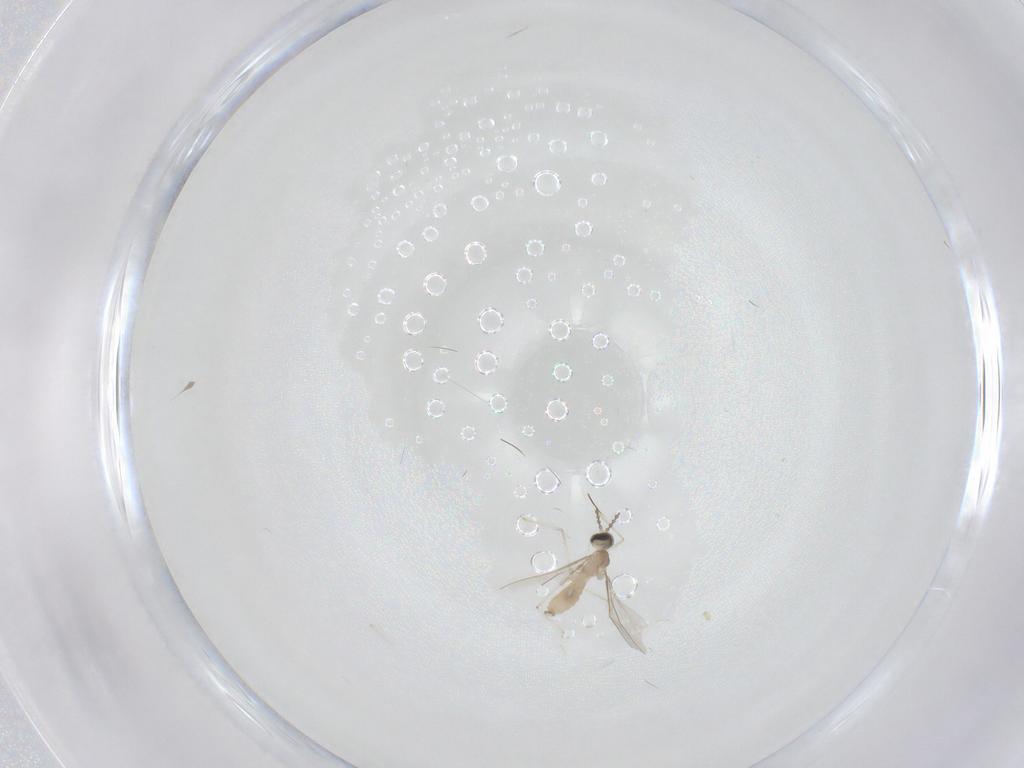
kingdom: Animalia
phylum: Arthropoda
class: Insecta
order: Diptera
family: Cecidomyiidae
